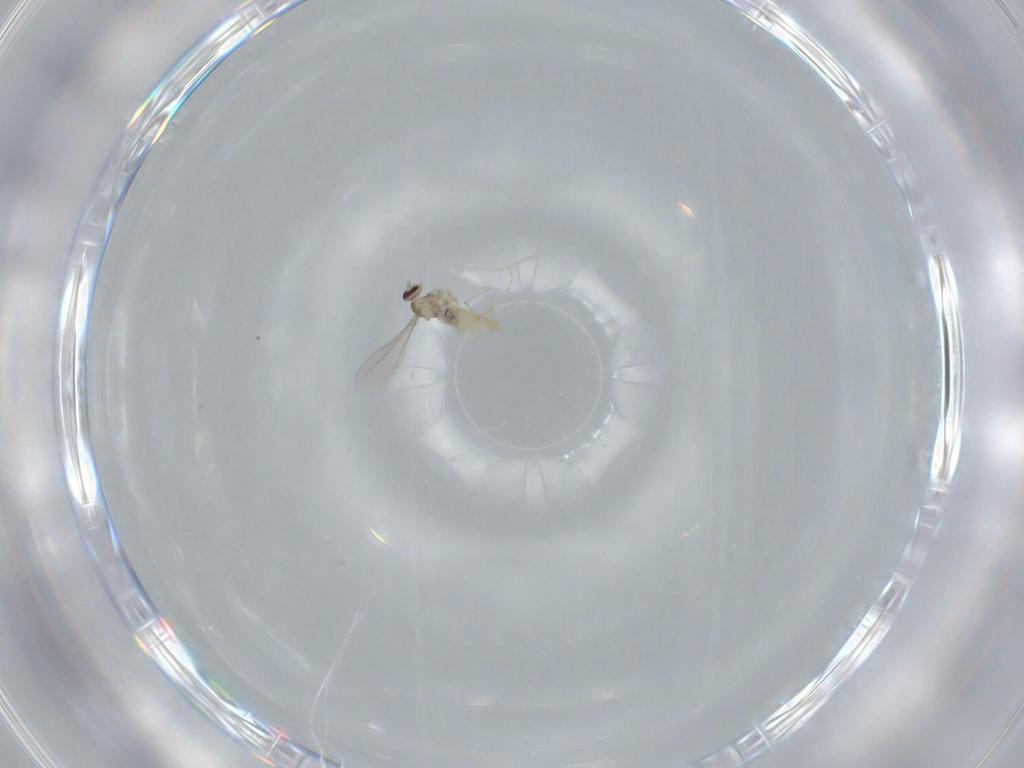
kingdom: Animalia
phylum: Arthropoda
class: Insecta
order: Diptera
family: Cecidomyiidae
